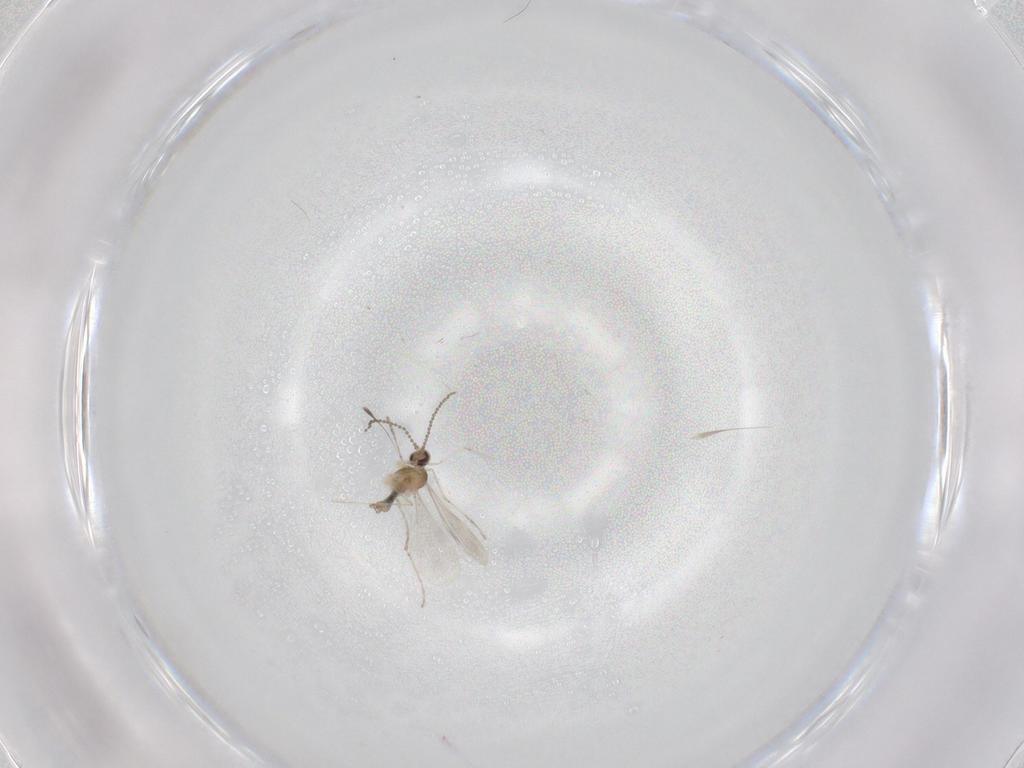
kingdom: Animalia
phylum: Arthropoda
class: Insecta
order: Diptera
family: Cecidomyiidae
